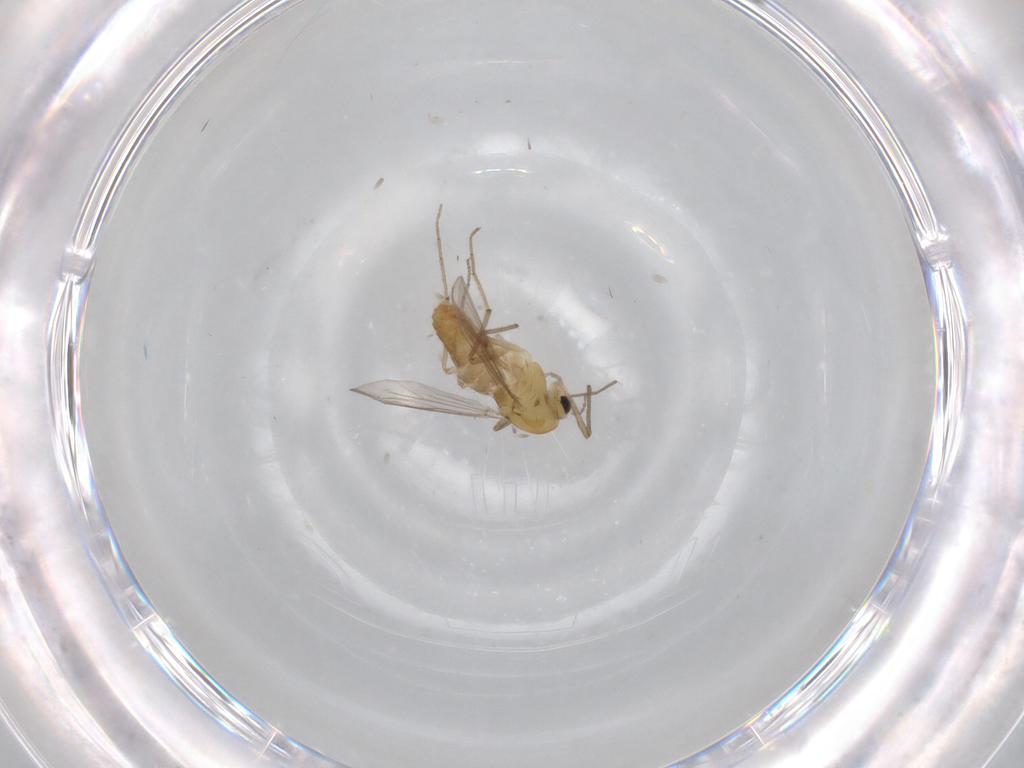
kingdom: Animalia
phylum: Arthropoda
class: Insecta
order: Diptera
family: Chironomidae
